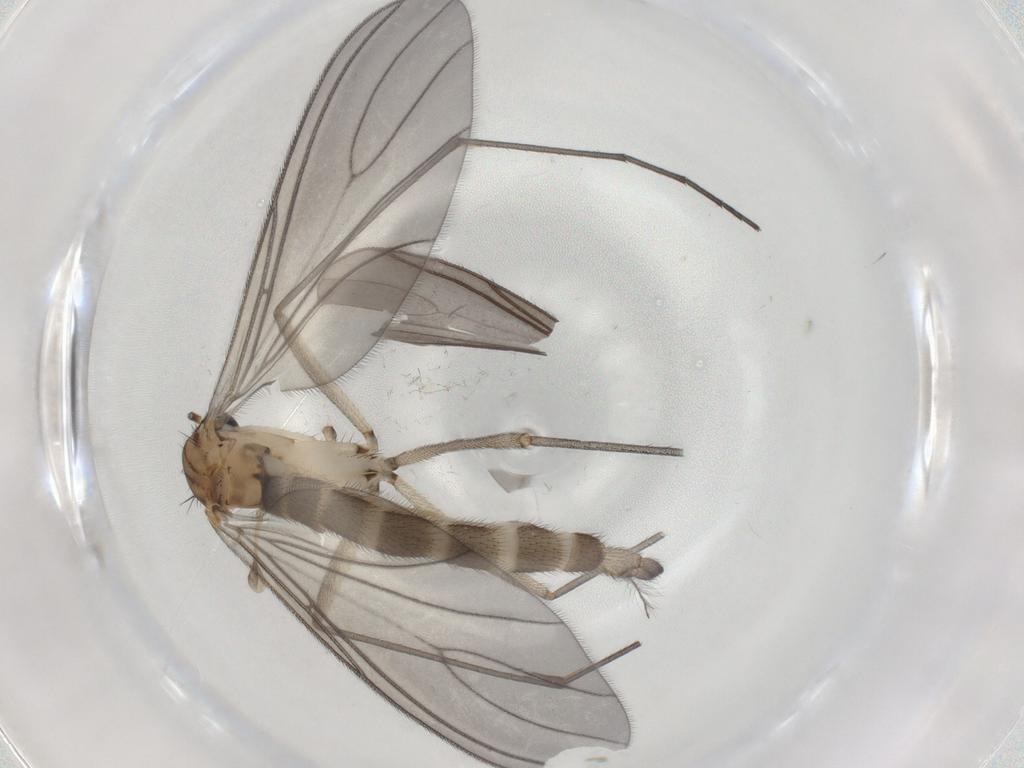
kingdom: Animalia
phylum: Arthropoda
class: Insecta
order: Diptera
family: Sciaridae
